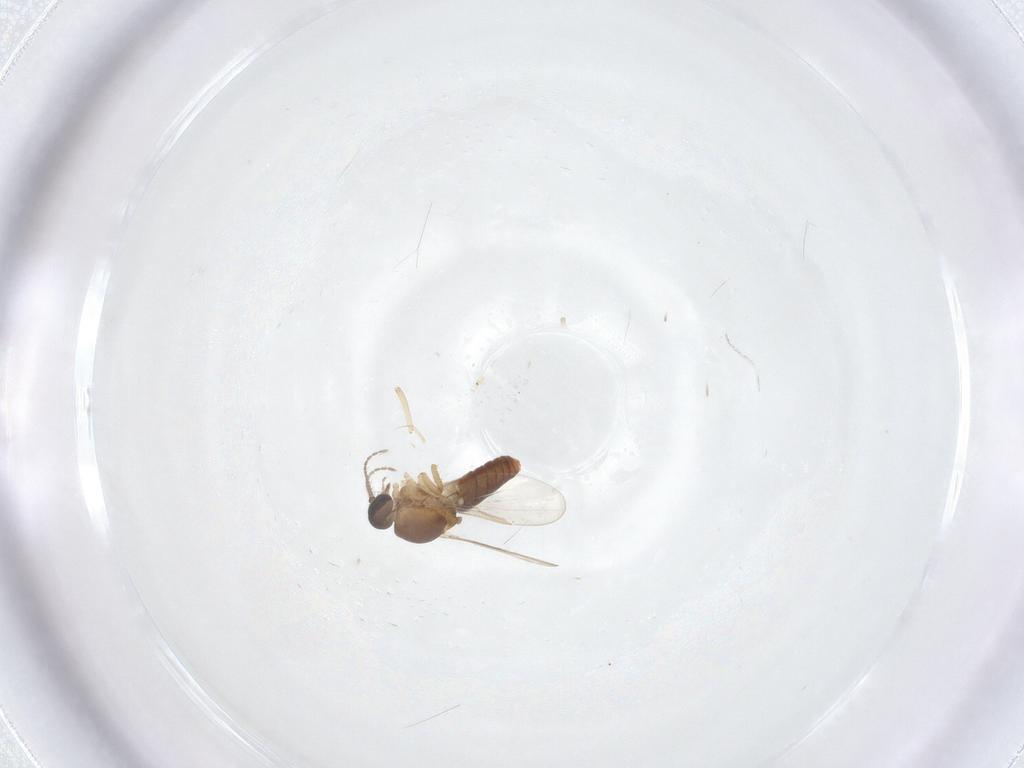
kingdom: Animalia
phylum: Arthropoda
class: Insecta
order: Diptera
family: Ceratopogonidae
